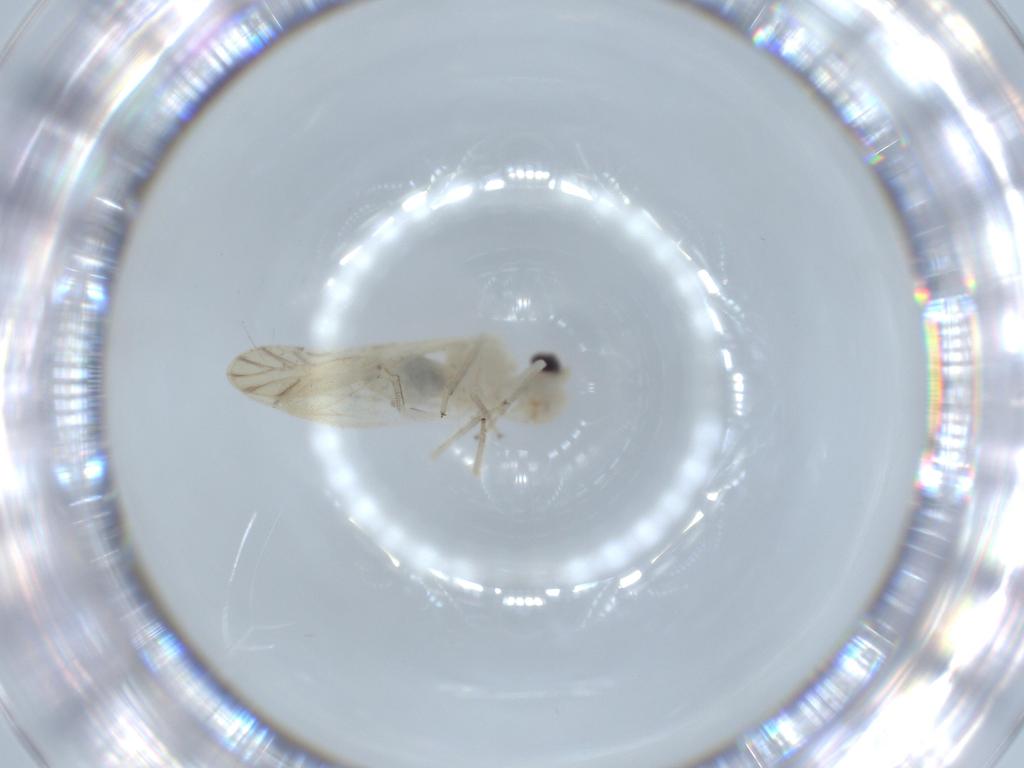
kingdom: Animalia
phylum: Arthropoda
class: Insecta
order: Psocodea
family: Caeciliusidae
